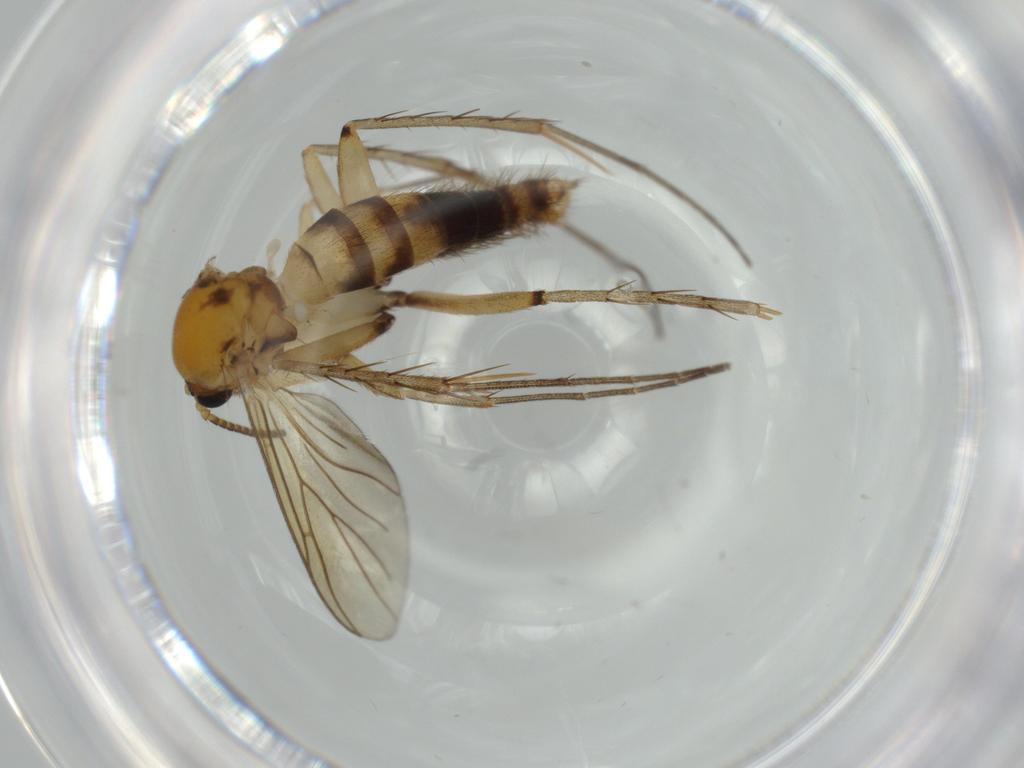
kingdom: Animalia
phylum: Arthropoda
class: Insecta
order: Diptera
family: Mycetophilidae
